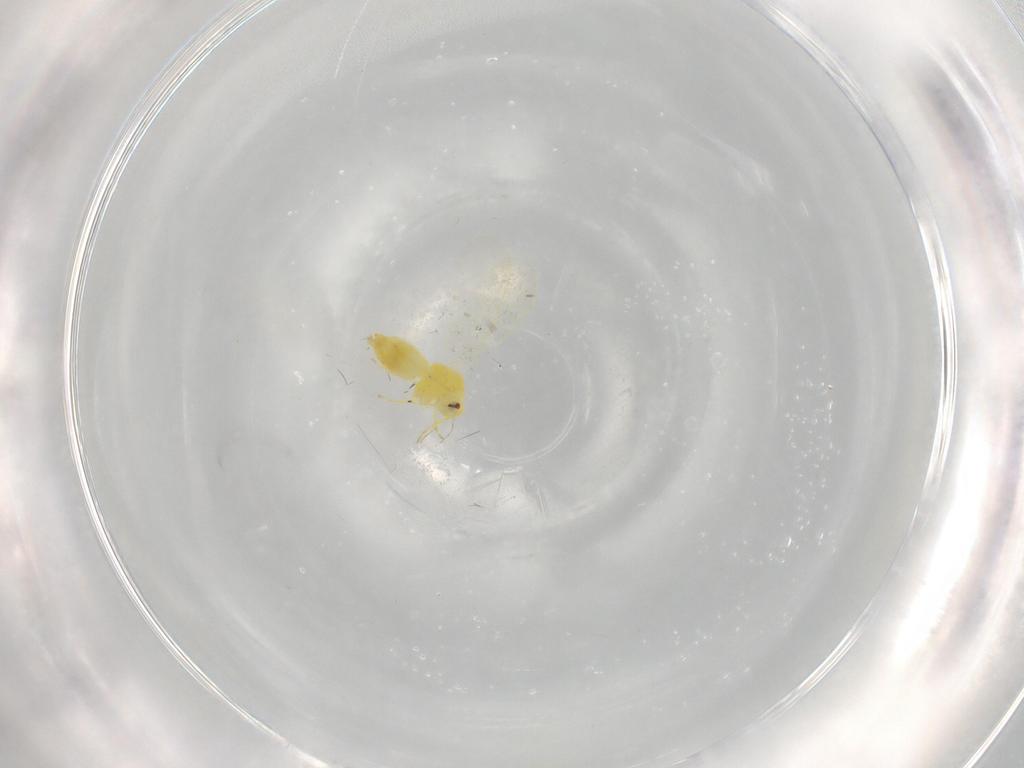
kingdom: Animalia
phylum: Arthropoda
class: Insecta
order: Hemiptera
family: Aleyrodidae
